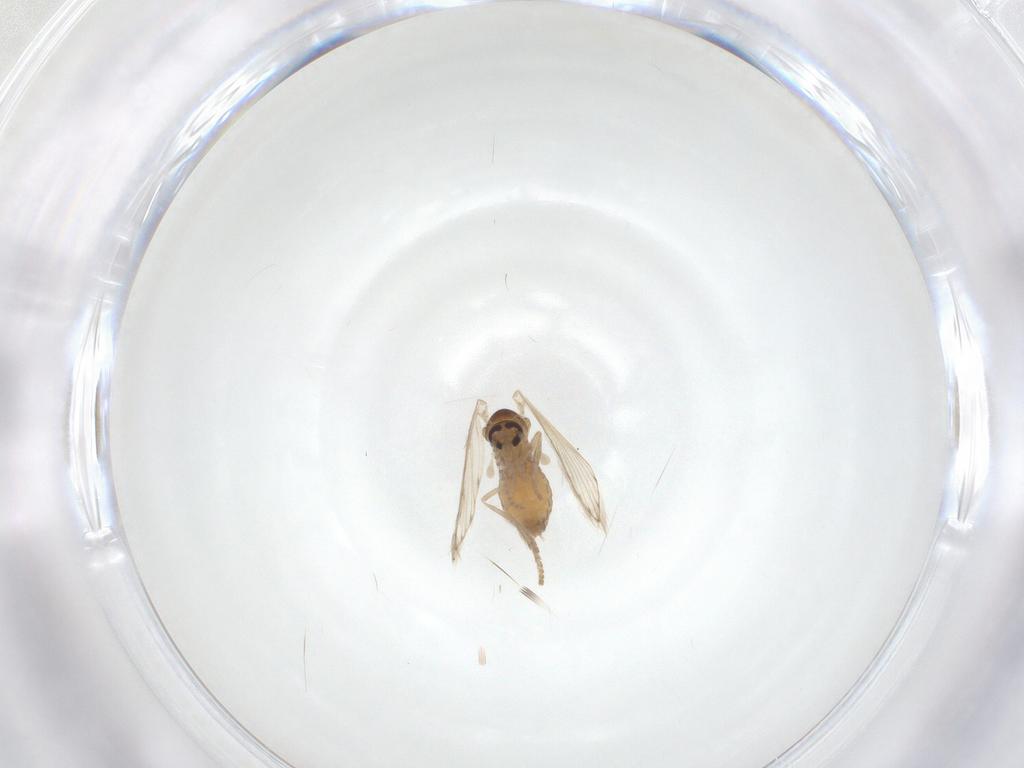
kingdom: Animalia
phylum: Arthropoda
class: Insecta
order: Diptera
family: Psychodidae
